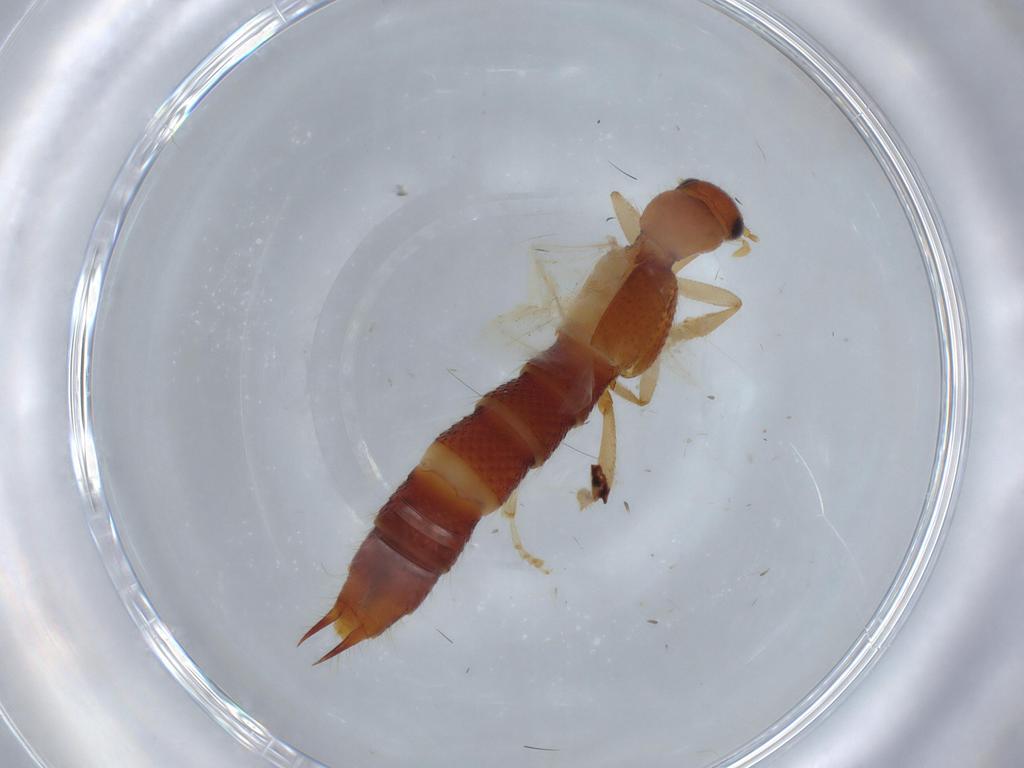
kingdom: Animalia
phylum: Arthropoda
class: Insecta
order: Coleoptera
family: Staphylinidae
